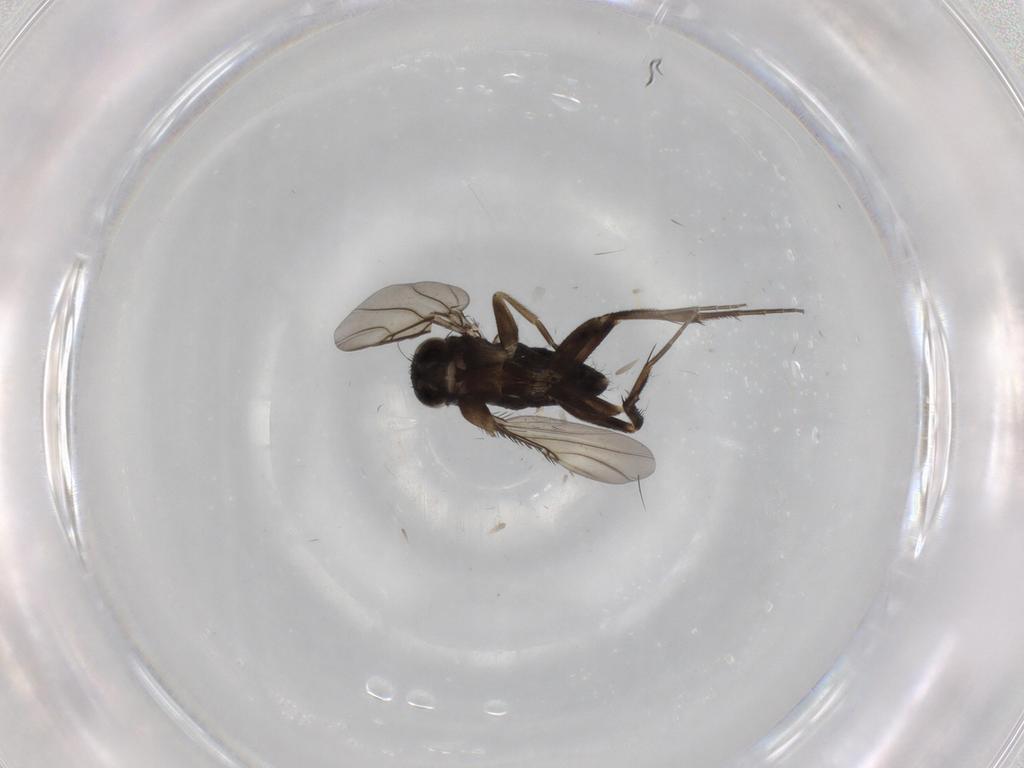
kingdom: Animalia
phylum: Arthropoda
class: Insecta
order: Diptera
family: Phoridae
